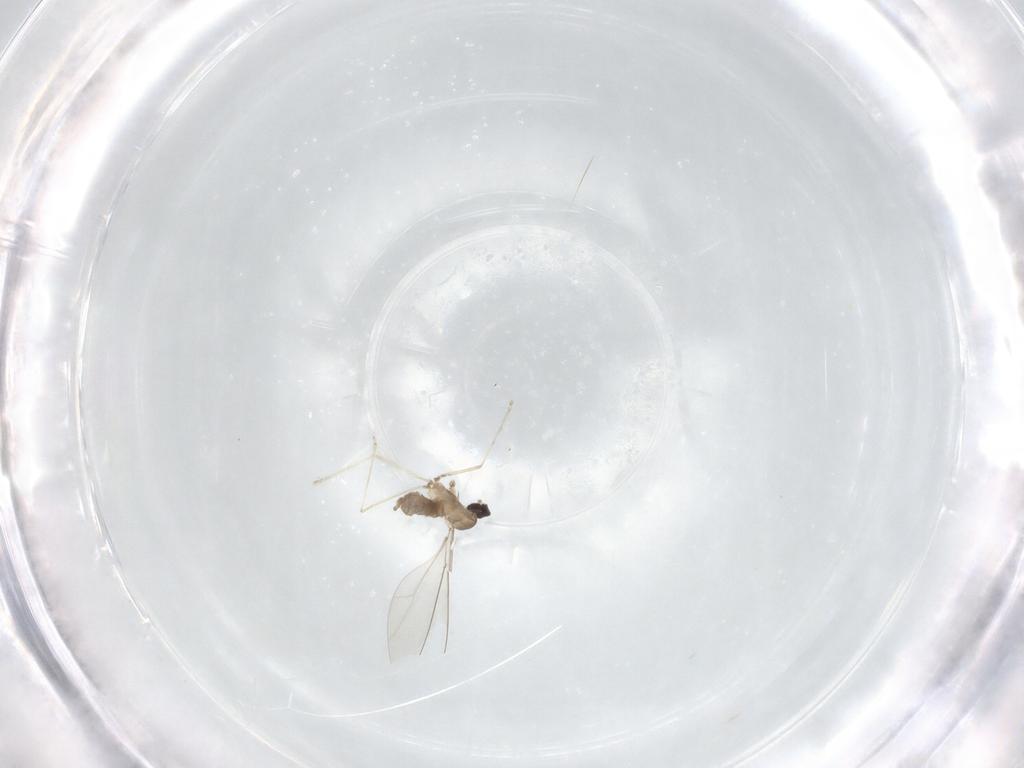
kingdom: Animalia
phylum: Arthropoda
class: Insecta
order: Diptera
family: Cecidomyiidae
